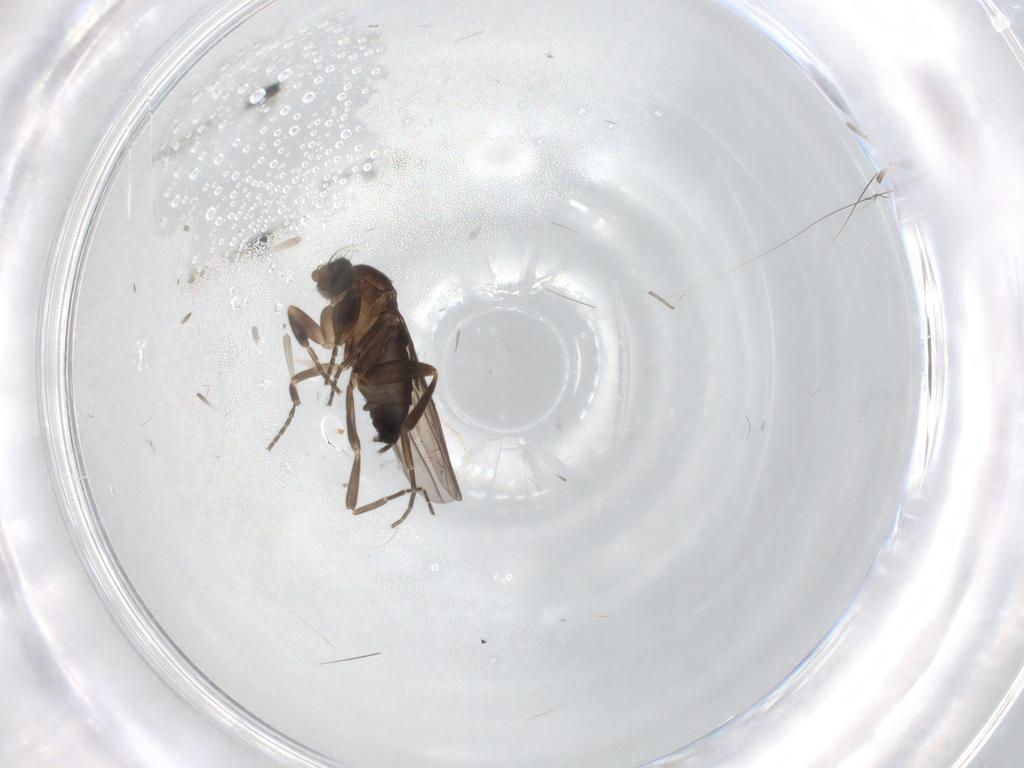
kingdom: Animalia
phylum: Arthropoda
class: Insecta
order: Diptera
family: Phoridae
